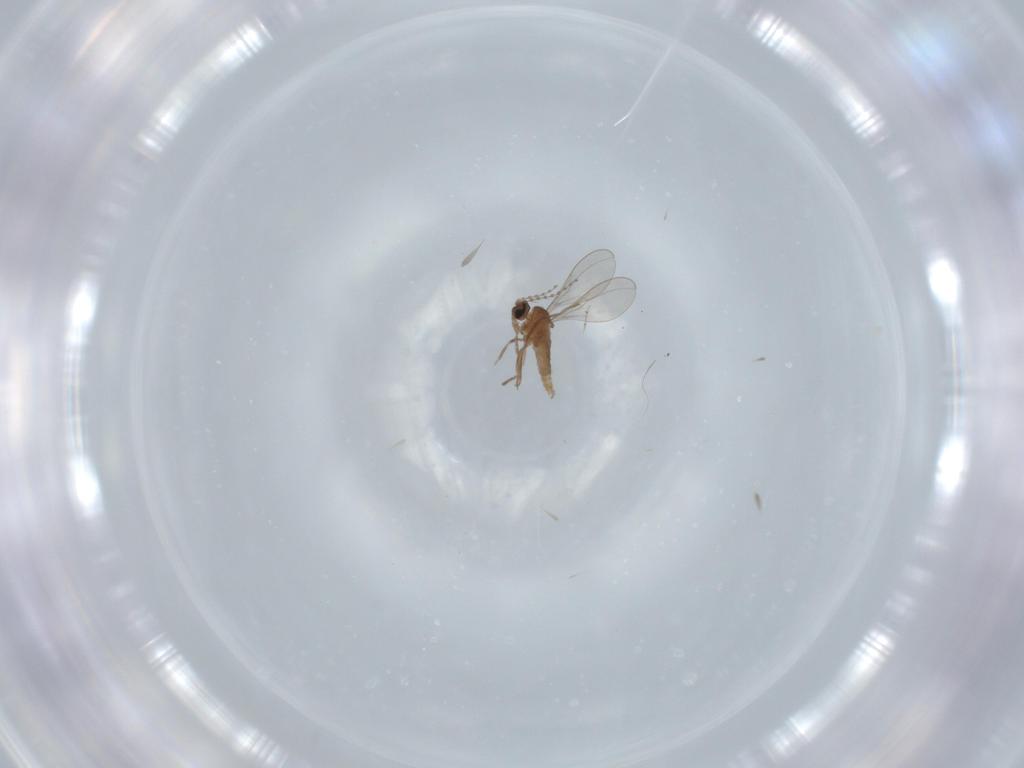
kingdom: Animalia
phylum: Arthropoda
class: Insecta
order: Diptera
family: Cecidomyiidae
